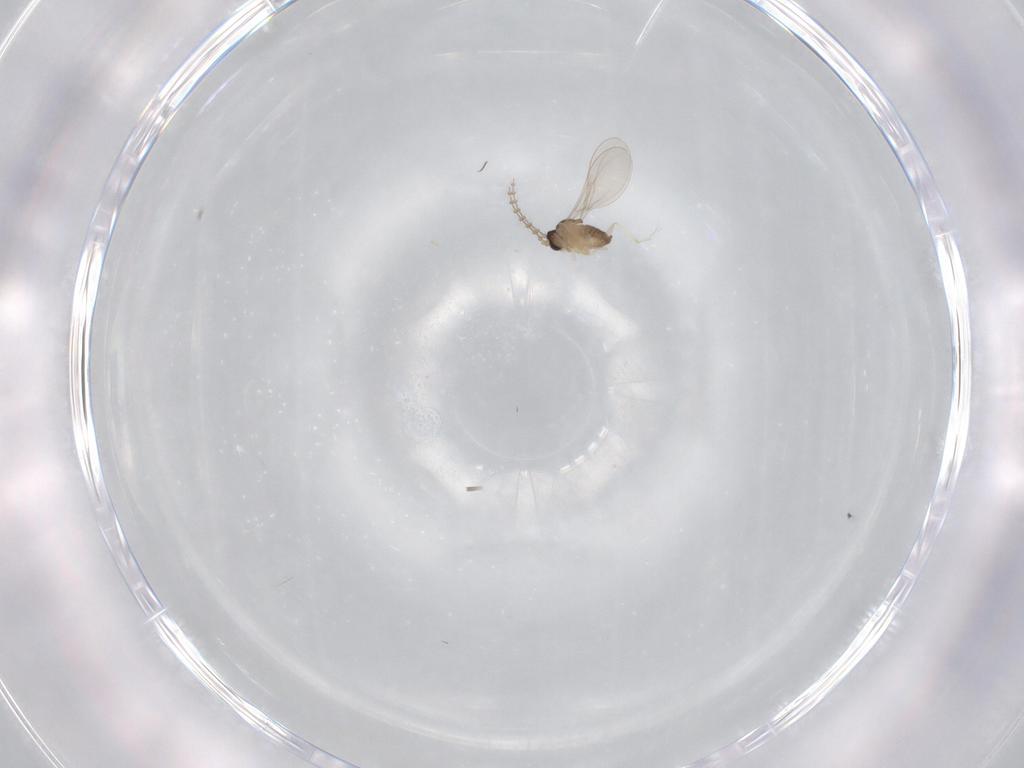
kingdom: Animalia
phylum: Arthropoda
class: Insecta
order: Diptera
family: Cecidomyiidae
